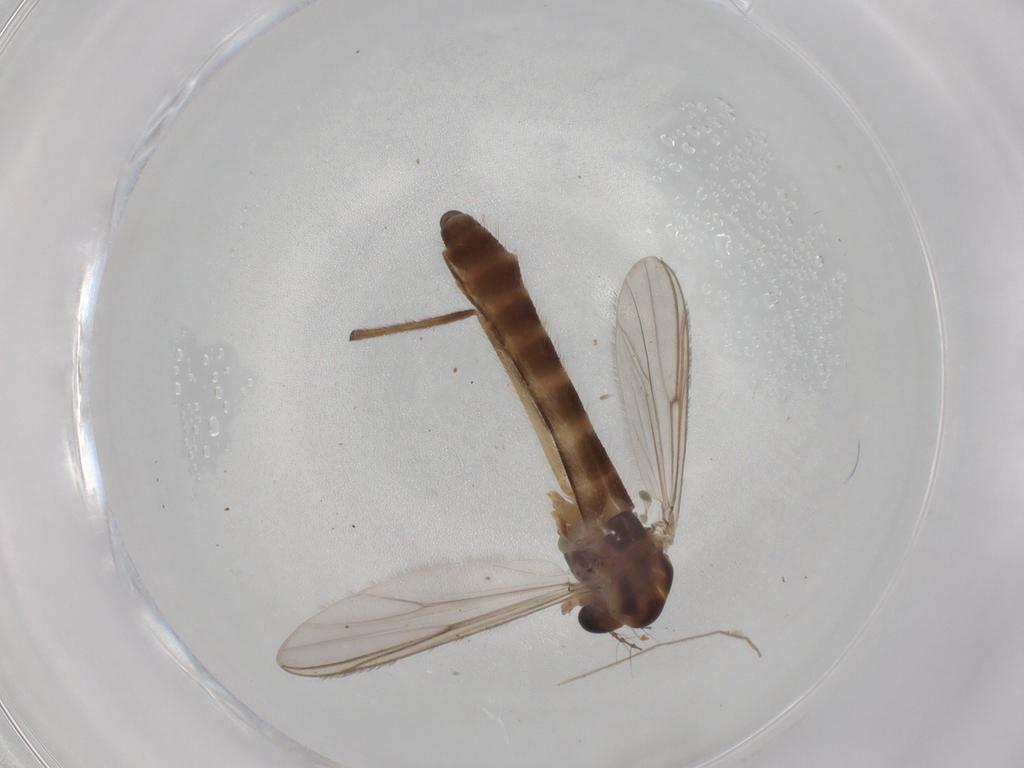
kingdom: Animalia
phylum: Arthropoda
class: Insecta
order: Diptera
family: Chironomidae
